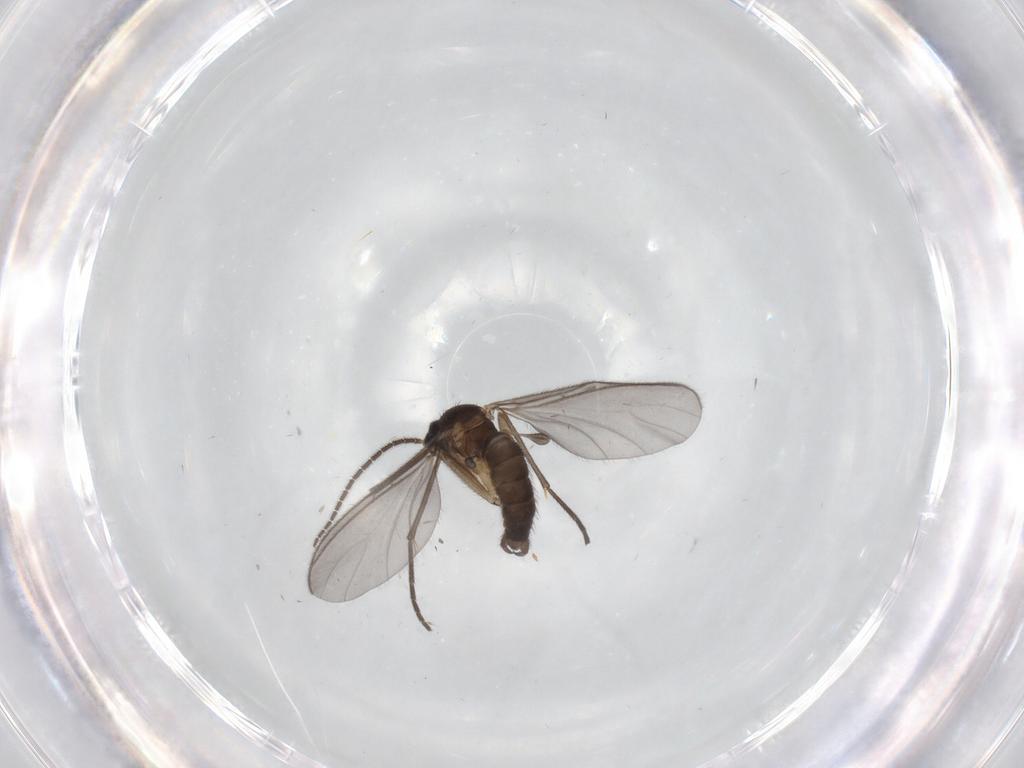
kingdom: Animalia
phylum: Arthropoda
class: Insecta
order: Diptera
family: Sciaridae
